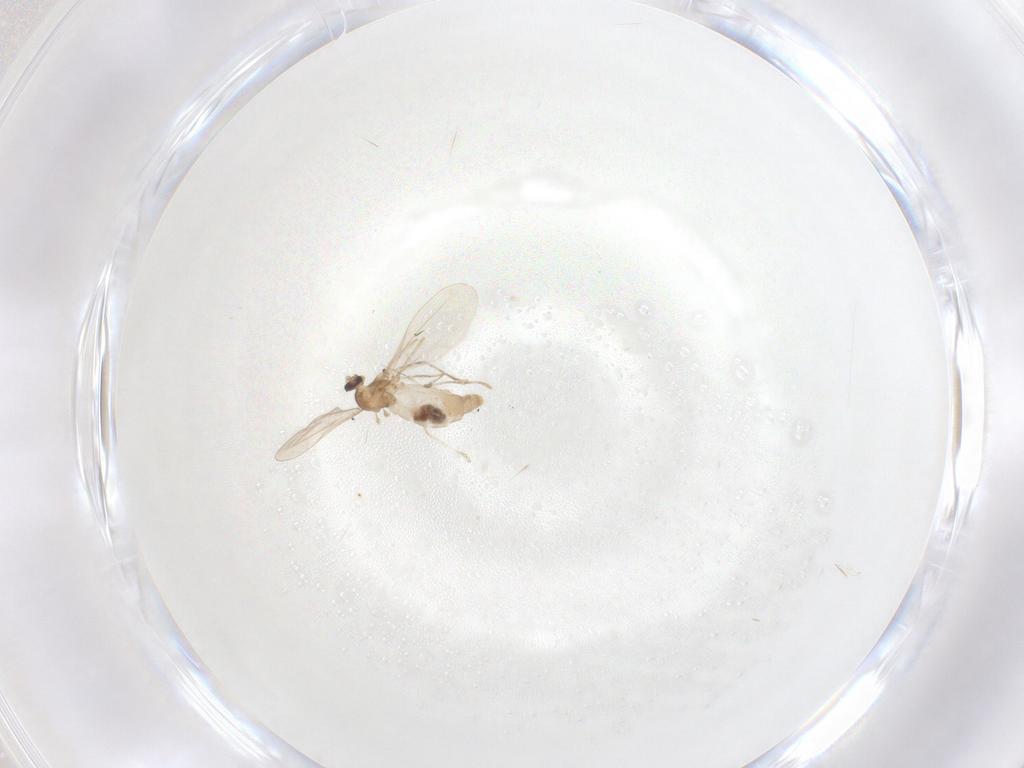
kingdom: Animalia
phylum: Arthropoda
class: Insecta
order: Diptera
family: Cecidomyiidae
